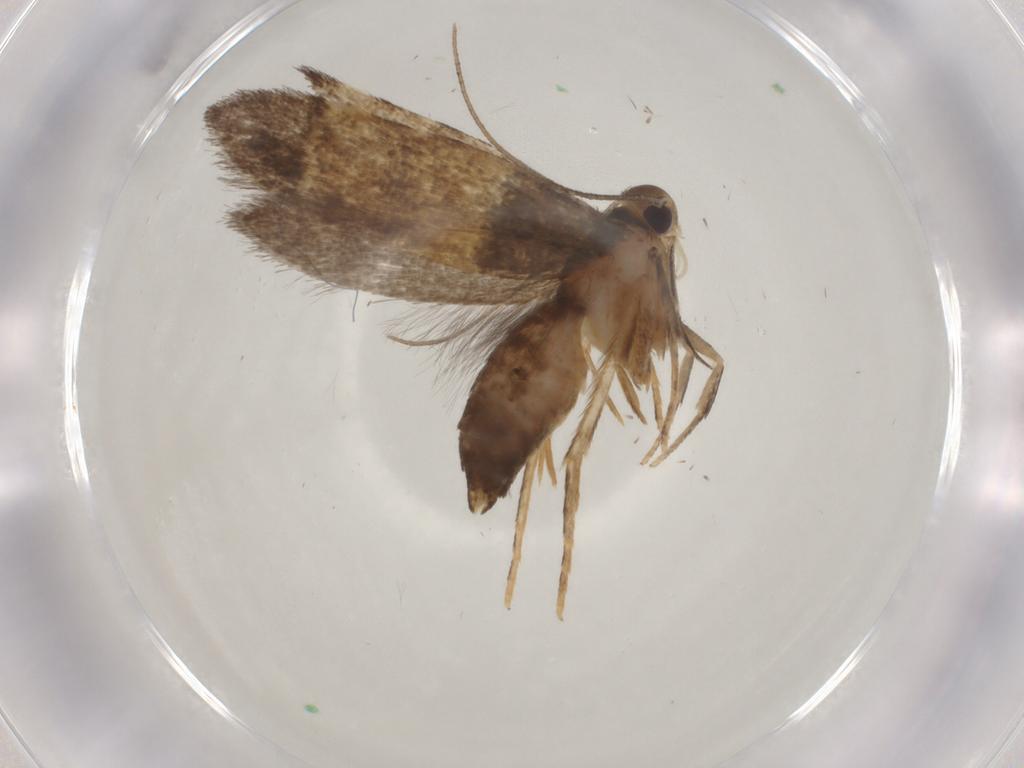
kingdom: Animalia
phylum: Arthropoda
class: Insecta
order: Lepidoptera
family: Cosmopterigidae
